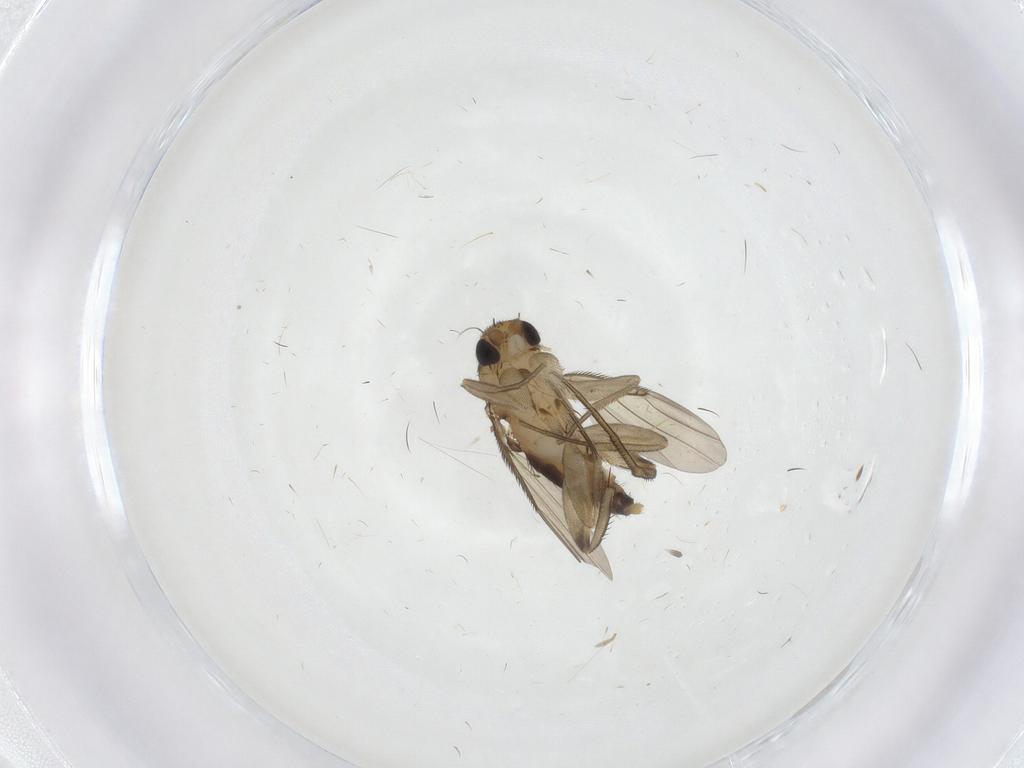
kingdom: Animalia
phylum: Arthropoda
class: Insecta
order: Diptera
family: Phoridae
